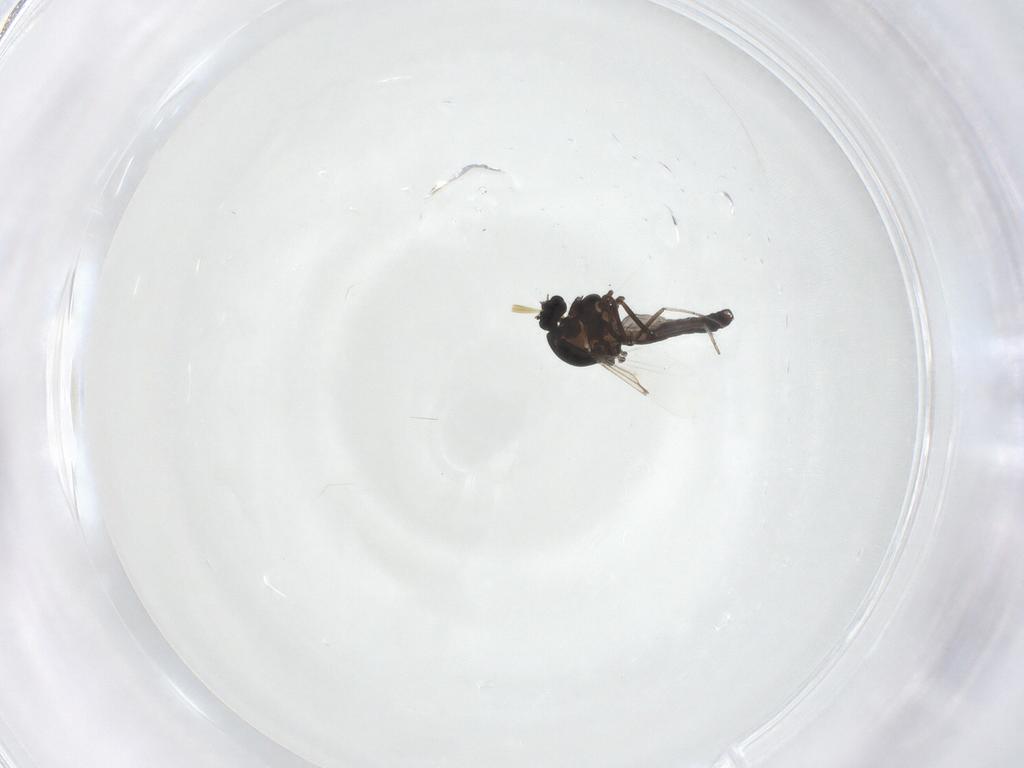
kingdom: Animalia
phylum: Arthropoda
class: Insecta
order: Diptera
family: Ceratopogonidae
